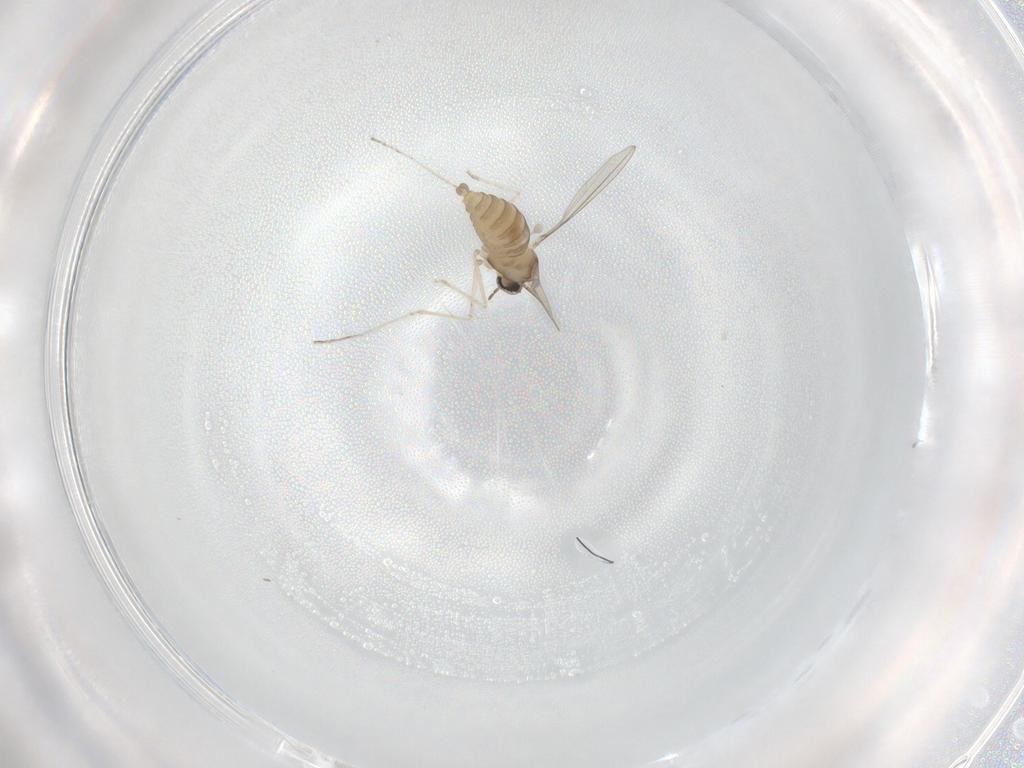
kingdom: Animalia
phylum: Arthropoda
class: Insecta
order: Diptera
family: Cecidomyiidae
